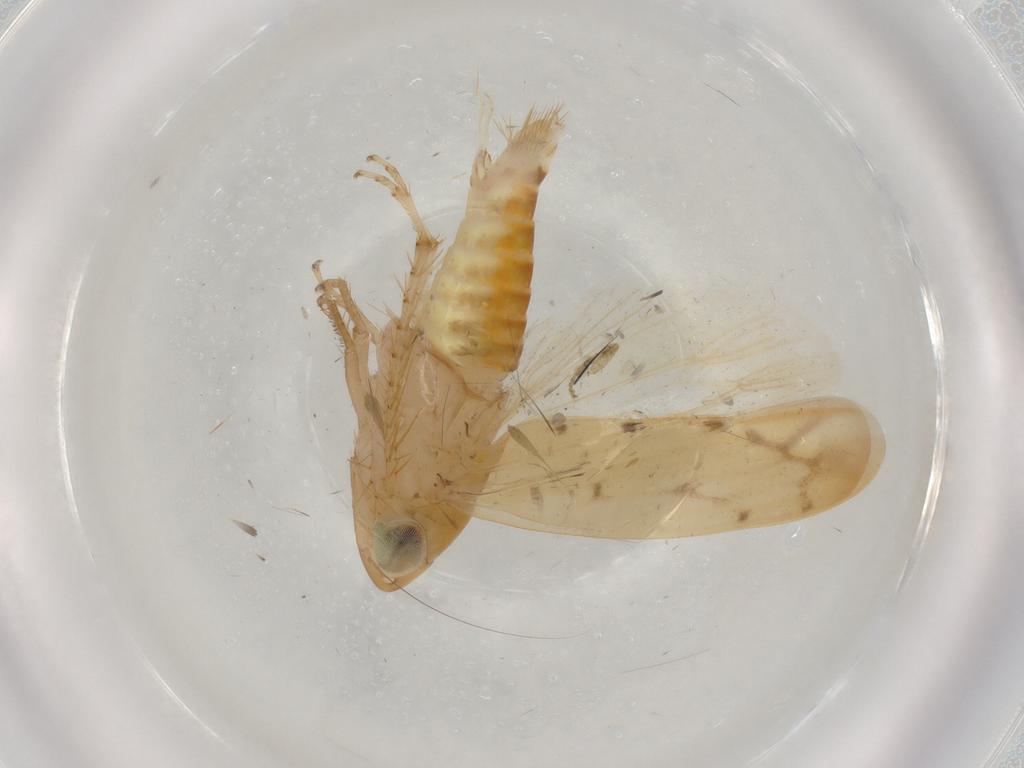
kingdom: Animalia
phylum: Arthropoda
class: Insecta
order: Hemiptera
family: Cicadellidae
